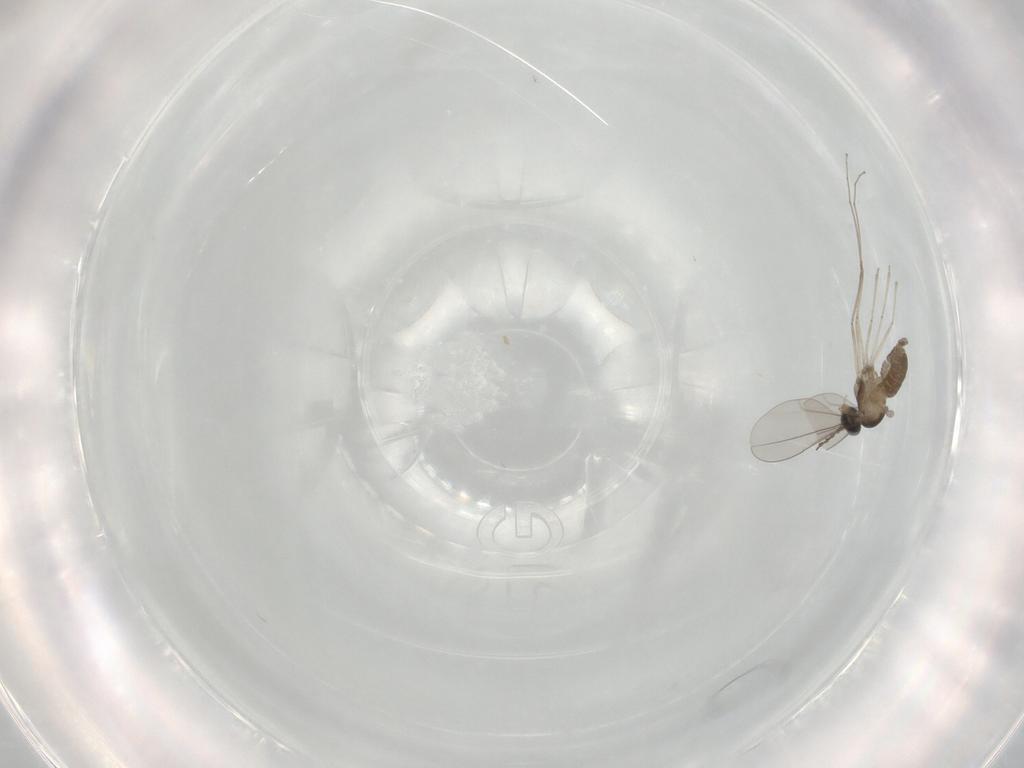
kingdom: Animalia
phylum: Arthropoda
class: Insecta
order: Diptera
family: Cecidomyiidae
